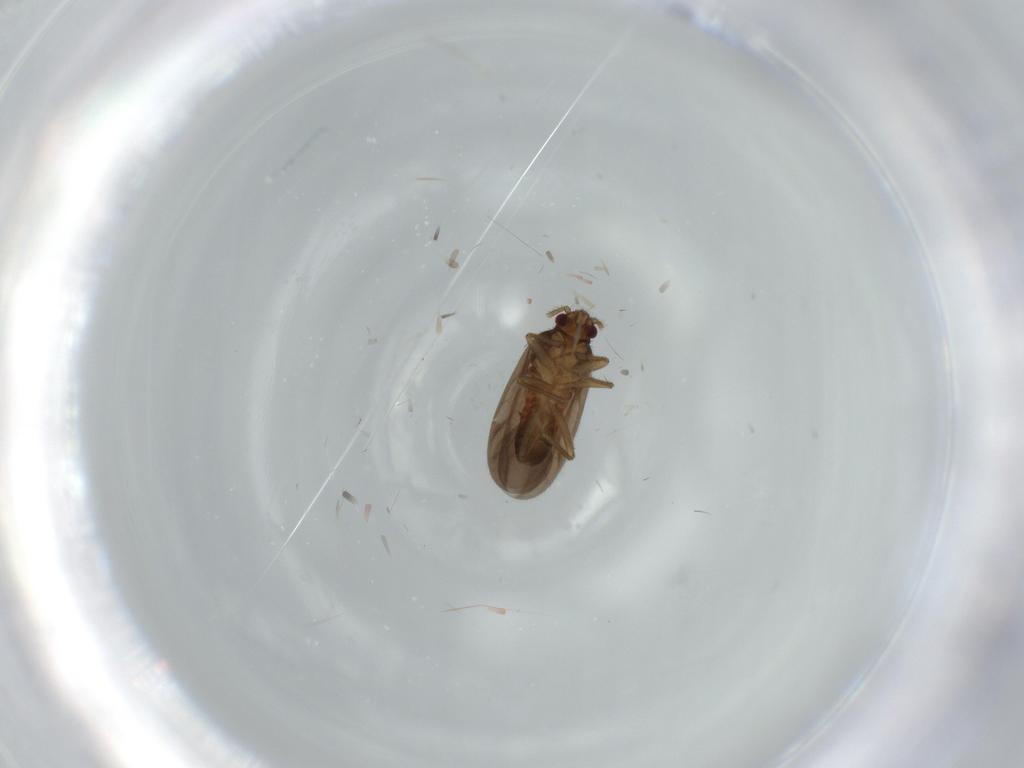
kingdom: Animalia
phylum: Arthropoda
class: Insecta
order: Hemiptera
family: Ceratocombidae
